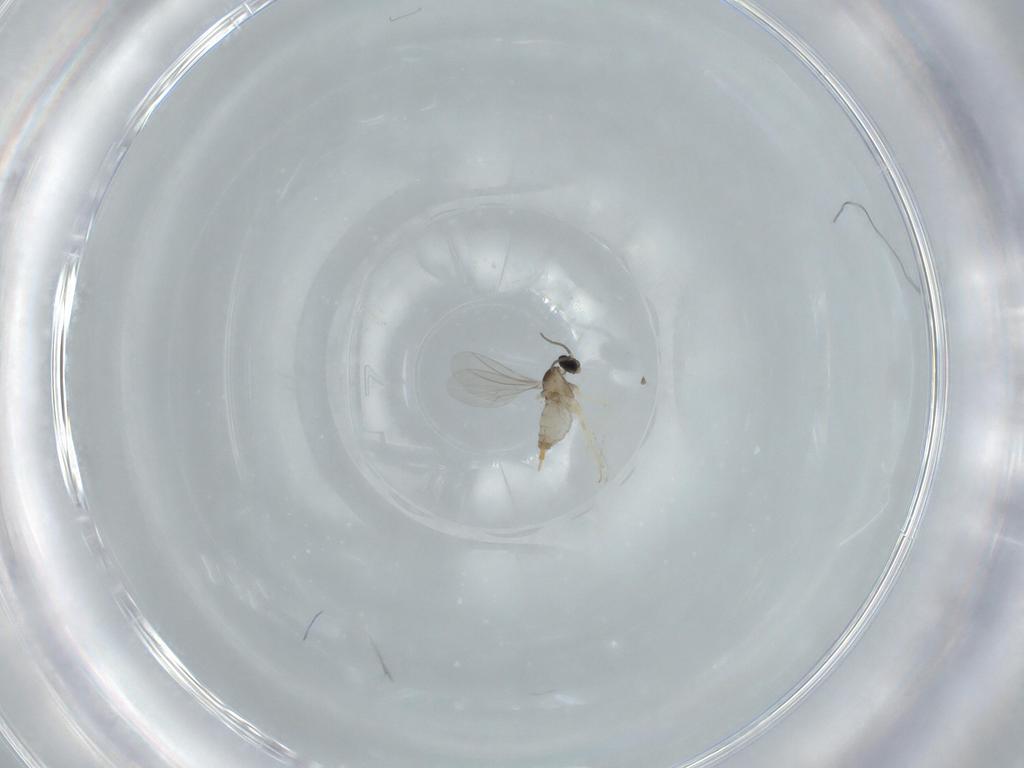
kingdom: Animalia
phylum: Arthropoda
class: Insecta
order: Diptera
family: Cecidomyiidae
